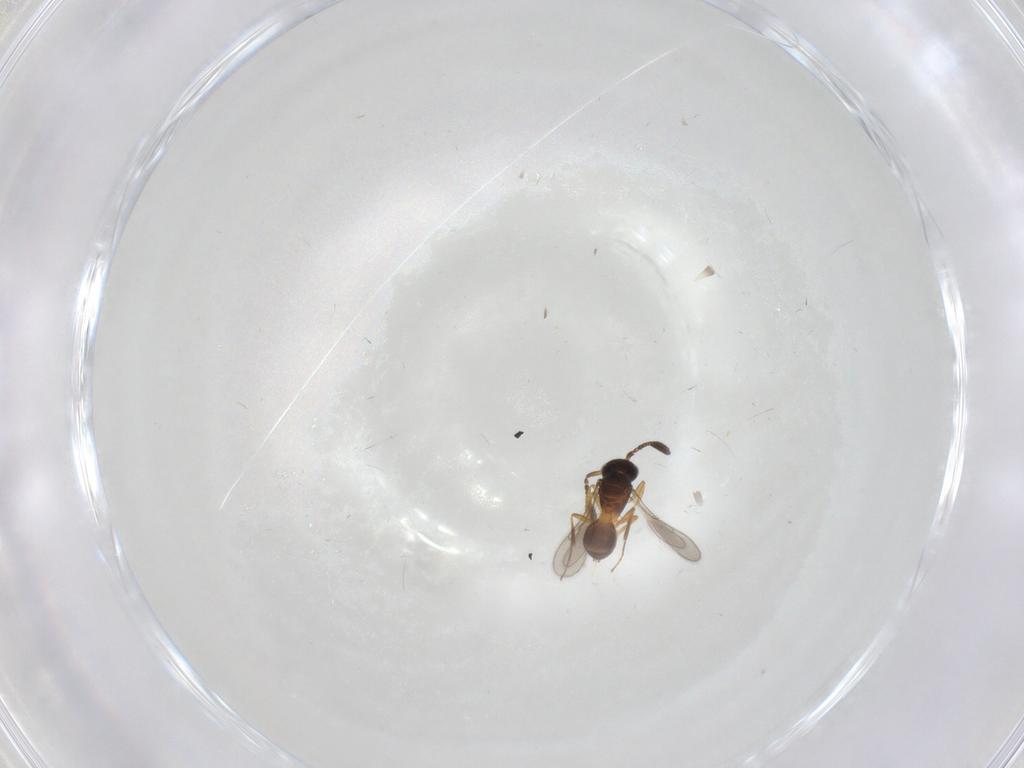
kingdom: Animalia
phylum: Arthropoda
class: Insecta
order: Hymenoptera
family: Scelionidae
